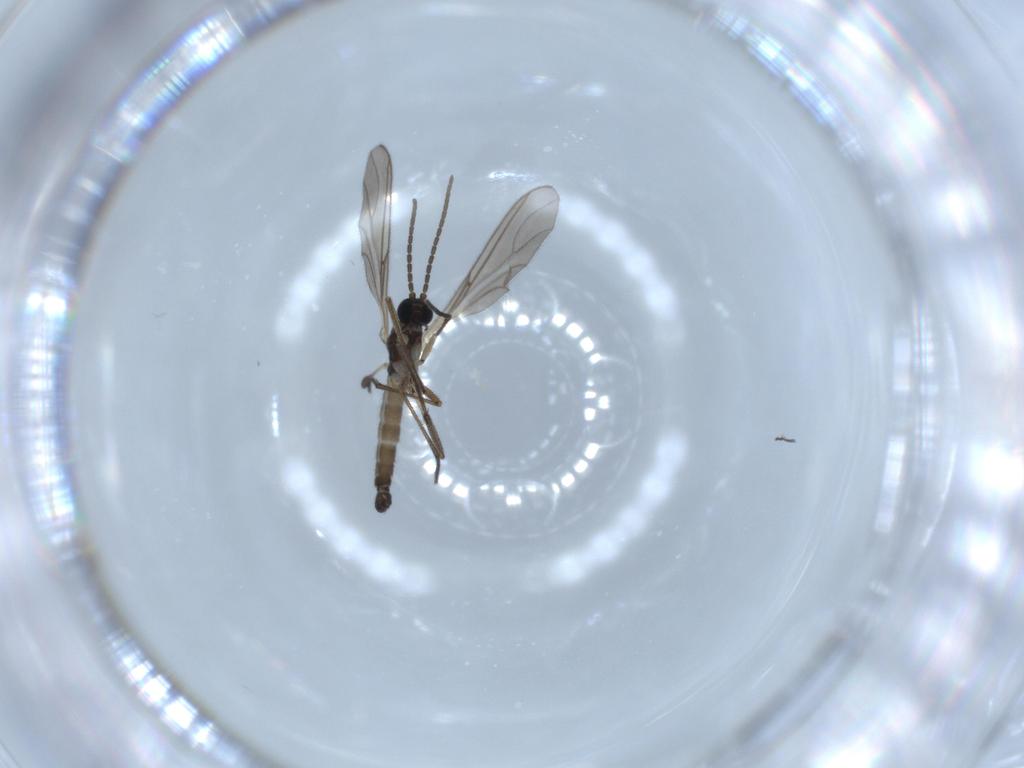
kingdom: Animalia
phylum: Arthropoda
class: Insecta
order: Diptera
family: Sciaridae
